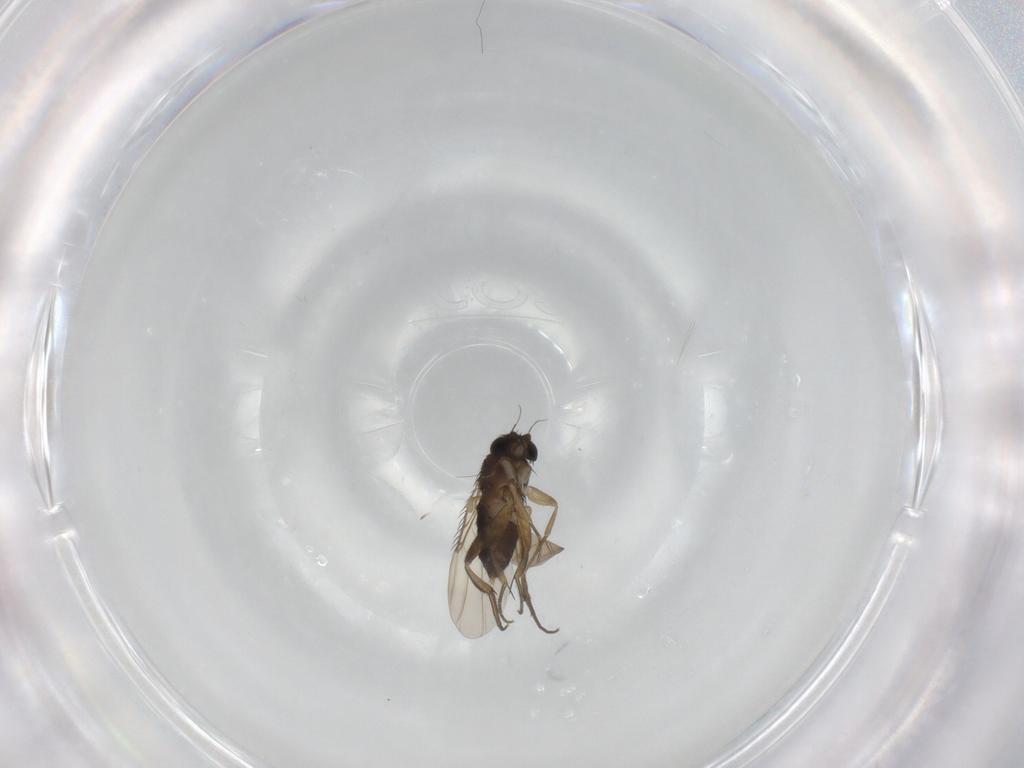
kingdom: Animalia
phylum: Arthropoda
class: Insecta
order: Diptera
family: Phoridae
